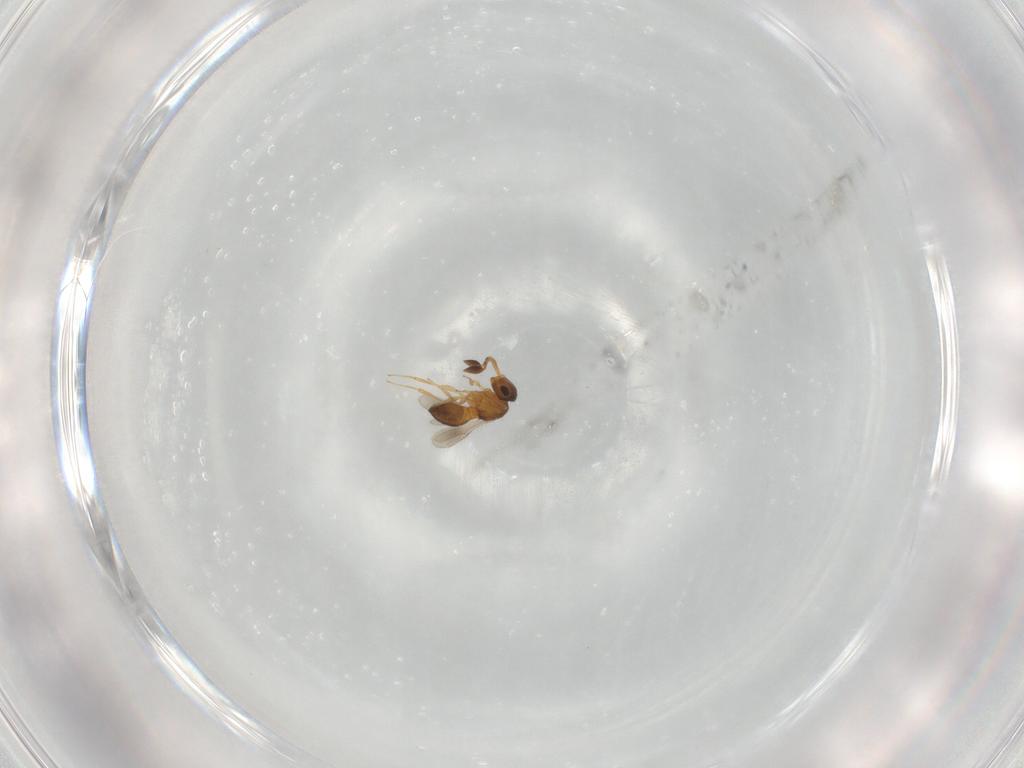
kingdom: Animalia
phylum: Arthropoda
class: Insecta
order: Hymenoptera
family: Scelionidae
